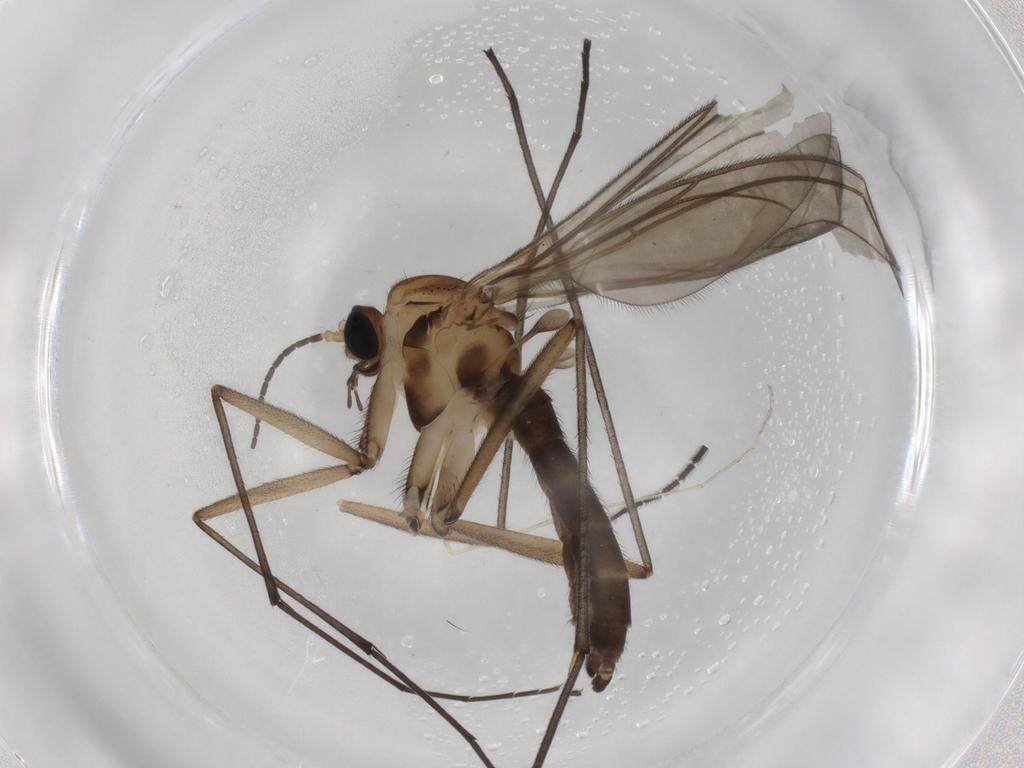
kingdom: Animalia
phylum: Arthropoda
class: Insecta
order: Diptera
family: Sciaridae
